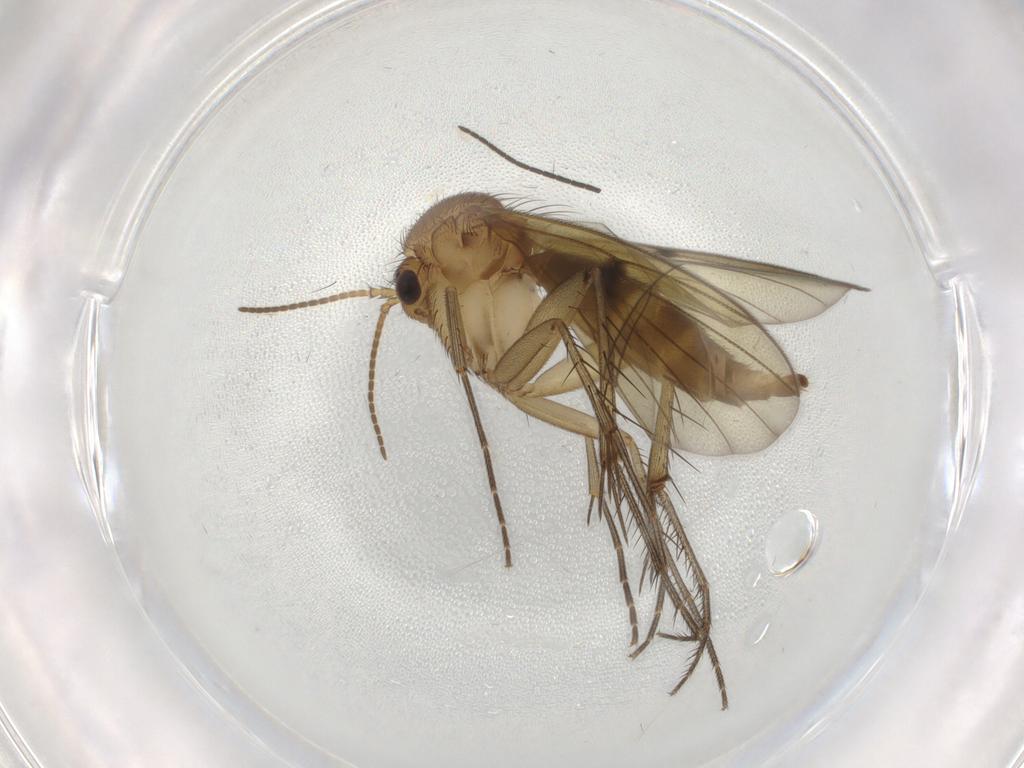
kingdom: Animalia
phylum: Arthropoda
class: Insecta
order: Diptera
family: Mycetophilidae
